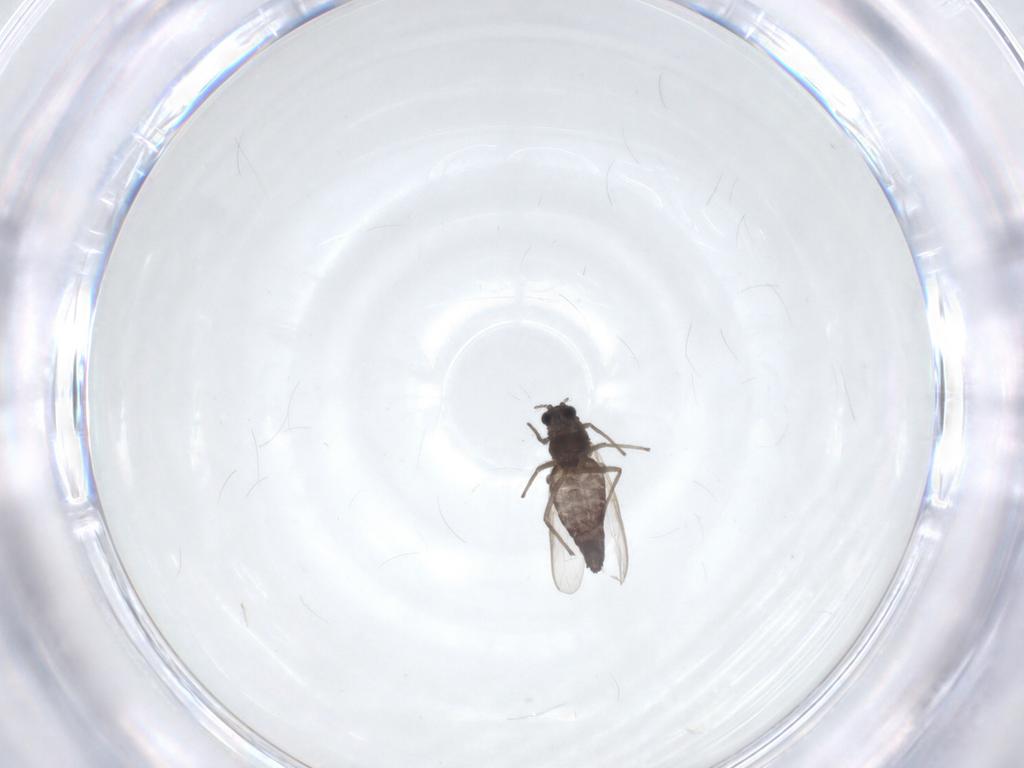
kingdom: Animalia
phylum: Arthropoda
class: Insecta
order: Diptera
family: Chironomidae
